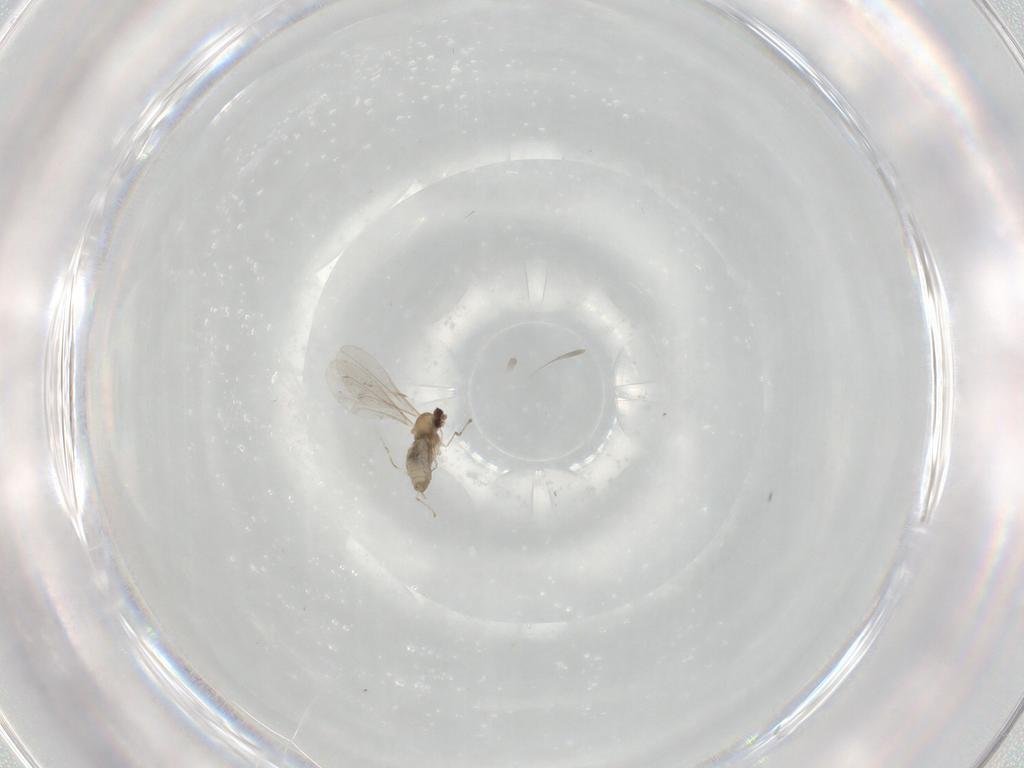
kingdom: Animalia
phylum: Arthropoda
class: Insecta
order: Diptera
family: Cecidomyiidae
